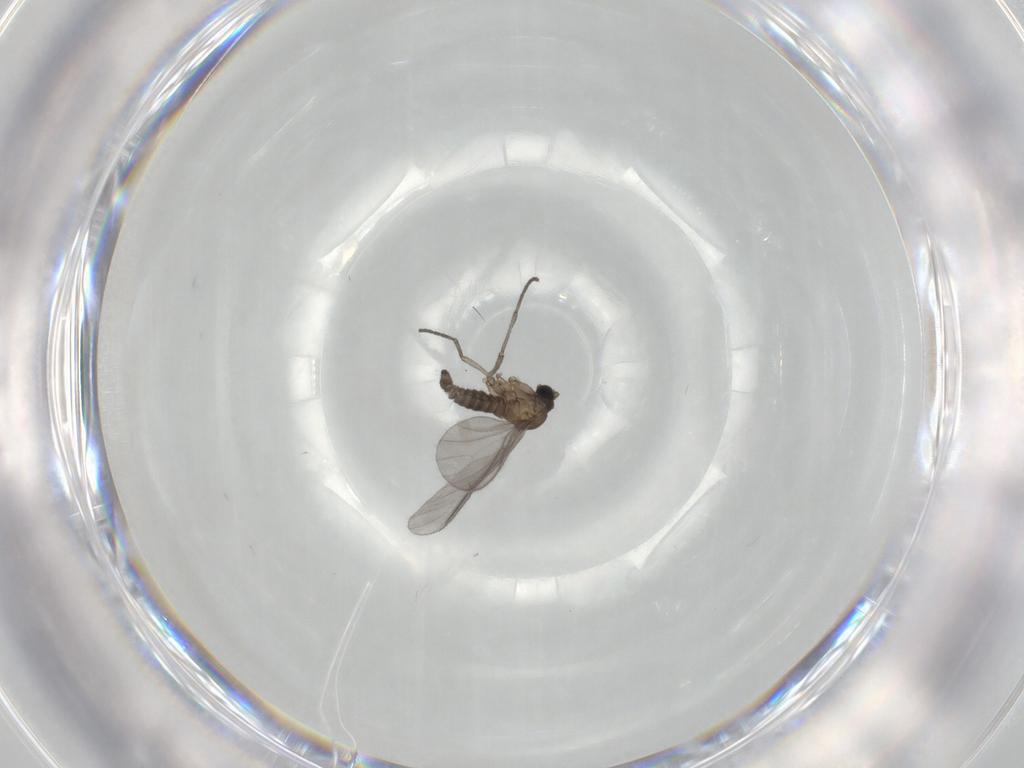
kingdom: Animalia
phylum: Arthropoda
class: Insecta
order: Diptera
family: Sciaridae
